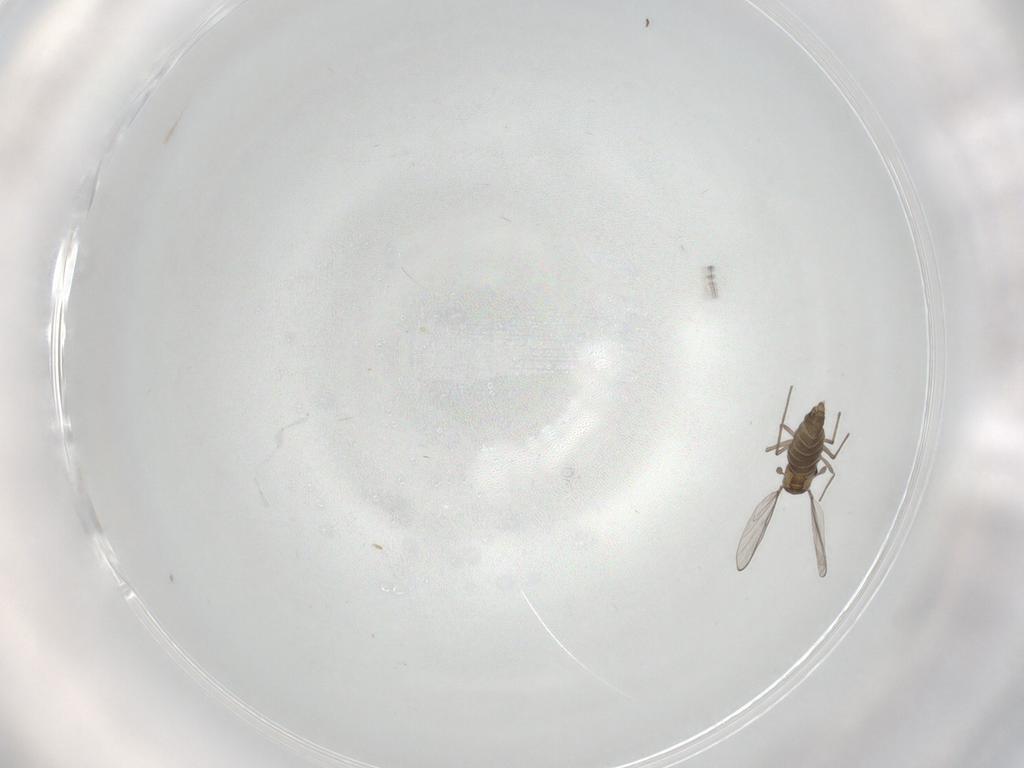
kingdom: Animalia
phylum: Arthropoda
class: Insecta
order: Diptera
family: Chironomidae
